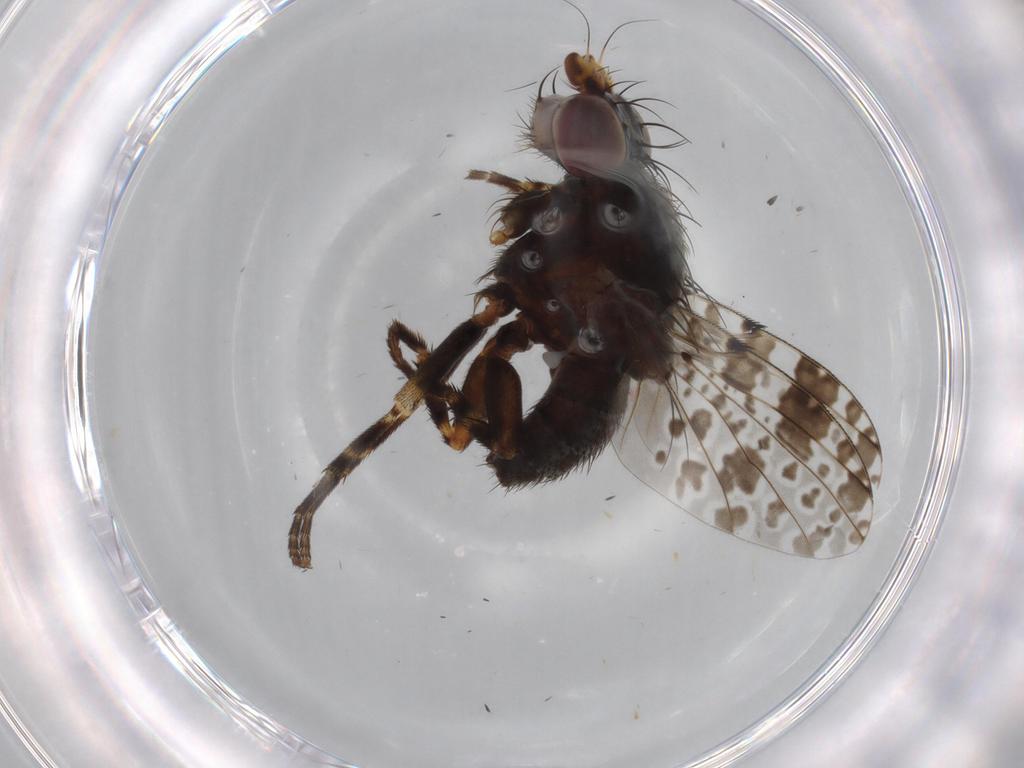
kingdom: Animalia
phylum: Arthropoda
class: Insecta
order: Diptera
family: Odiniidae
